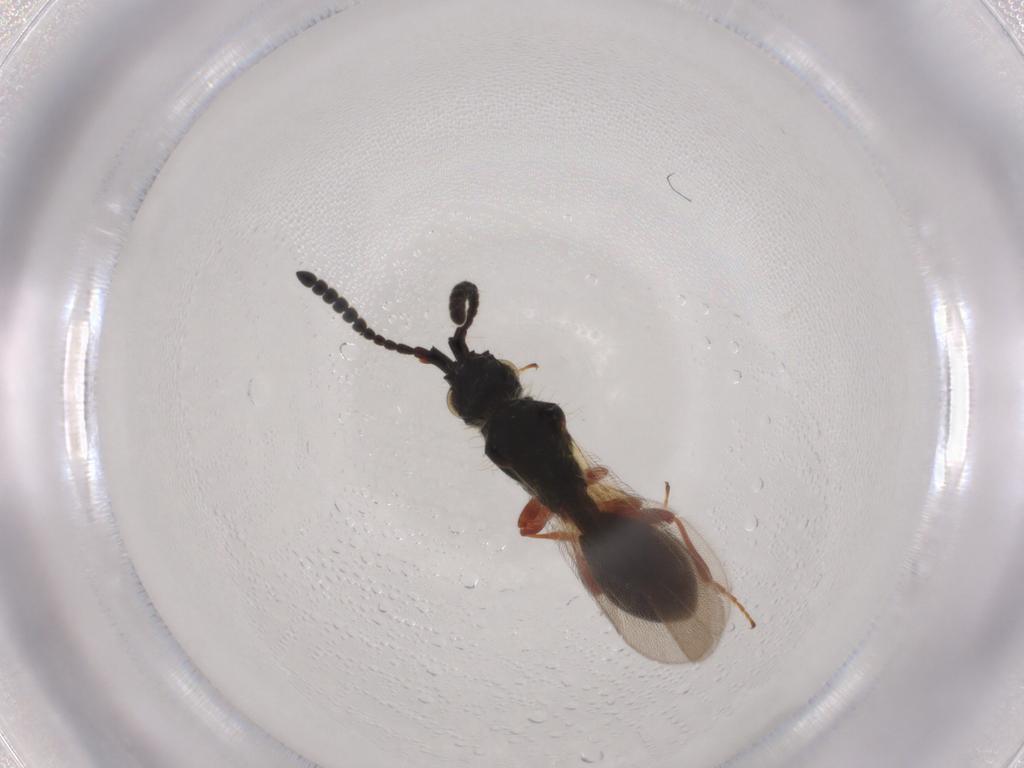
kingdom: Animalia
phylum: Arthropoda
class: Insecta
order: Hymenoptera
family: Diapriidae
